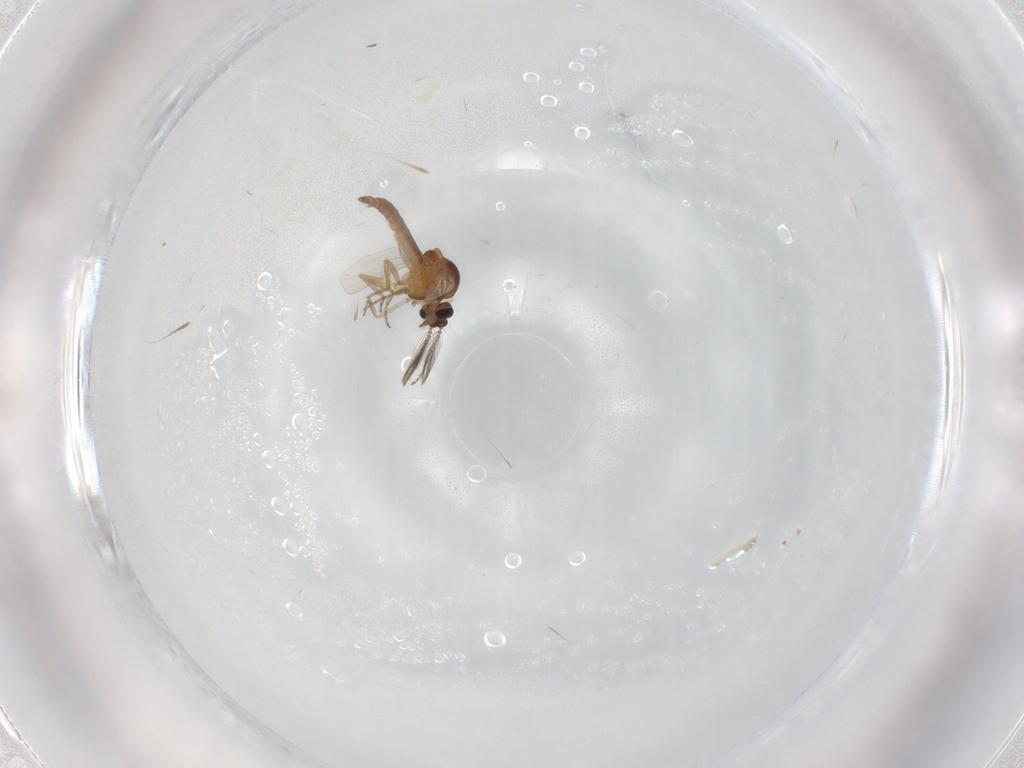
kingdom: Animalia
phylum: Arthropoda
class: Insecta
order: Diptera
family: Ceratopogonidae
